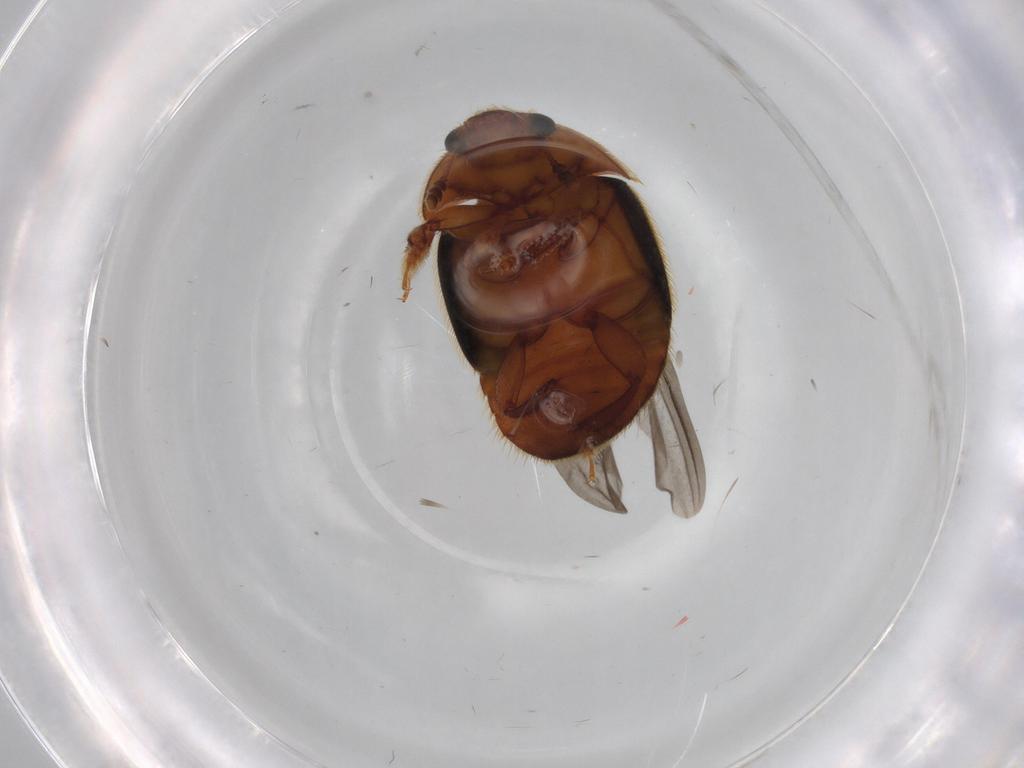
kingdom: Animalia
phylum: Arthropoda
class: Insecta
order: Coleoptera
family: Nitidulidae
